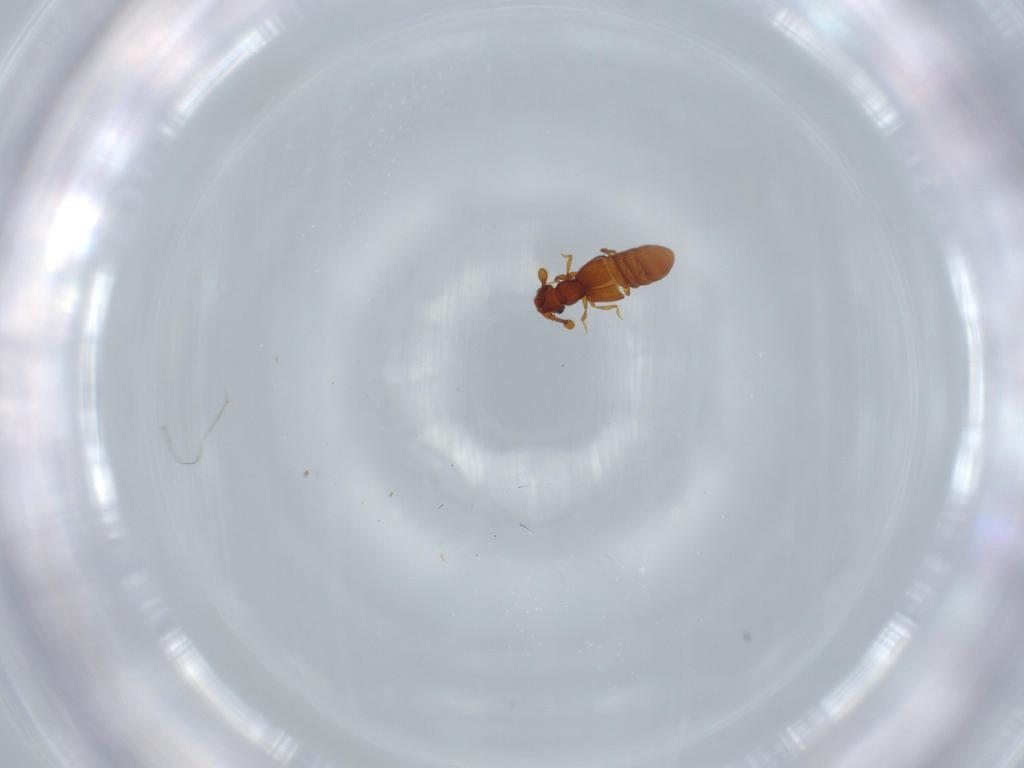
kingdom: Animalia
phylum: Arthropoda
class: Insecta
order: Coleoptera
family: Staphylinidae
